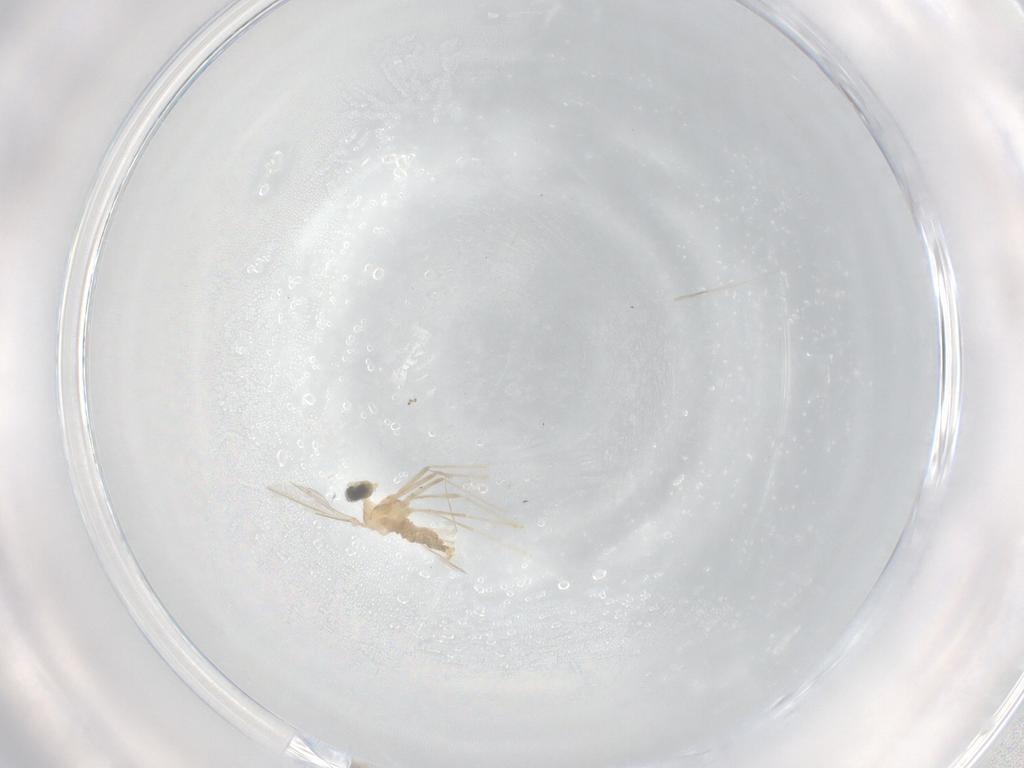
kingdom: Animalia
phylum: Arthropoda
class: Insecta
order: Diptera
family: Cecidomyiidae
